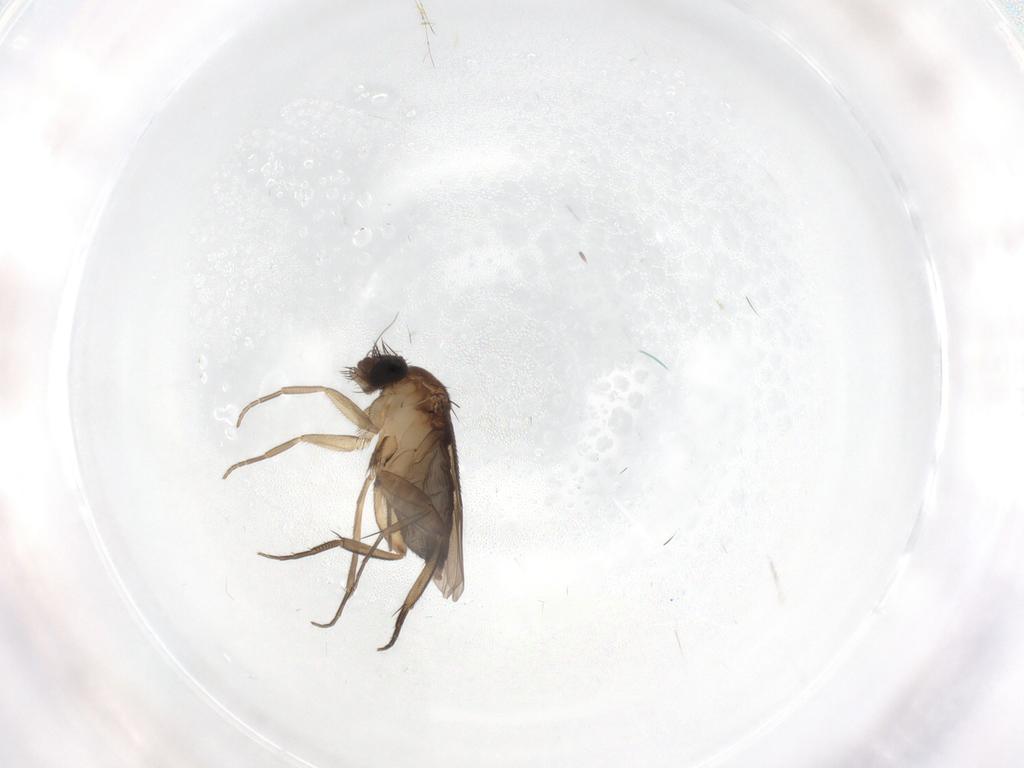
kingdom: Animalia
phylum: Arthropoda
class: Insecta
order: Diptera
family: Phoridae
